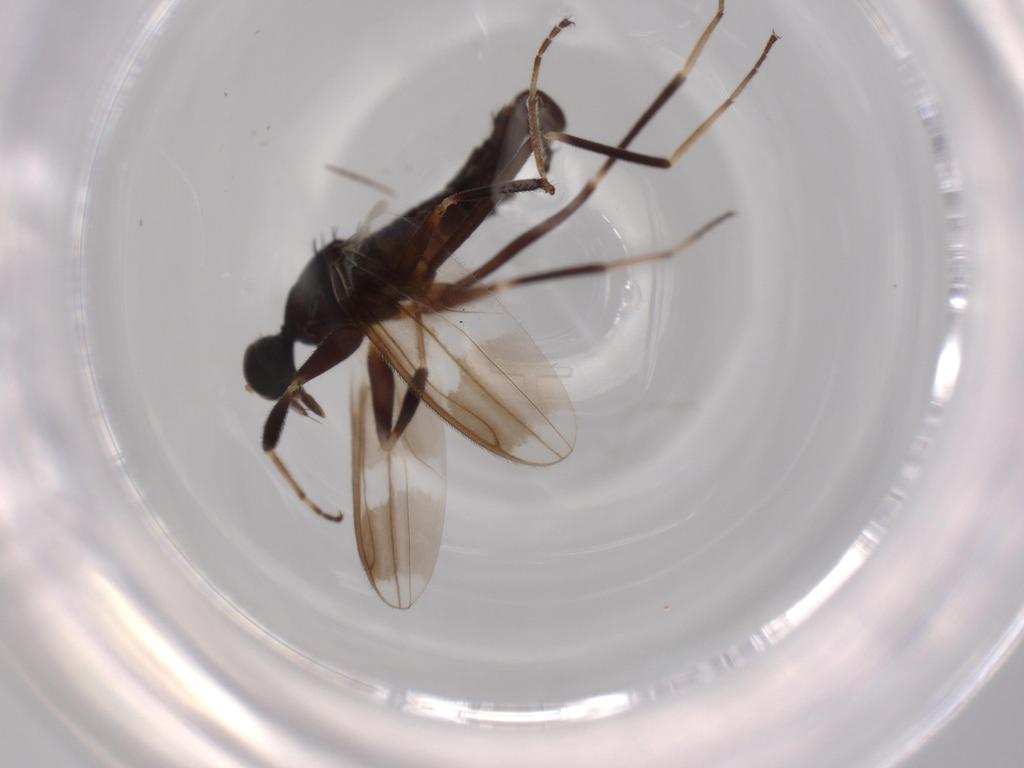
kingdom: Animalia
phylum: Arthropoda
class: Insecta
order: Diptera
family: Hybotidae
